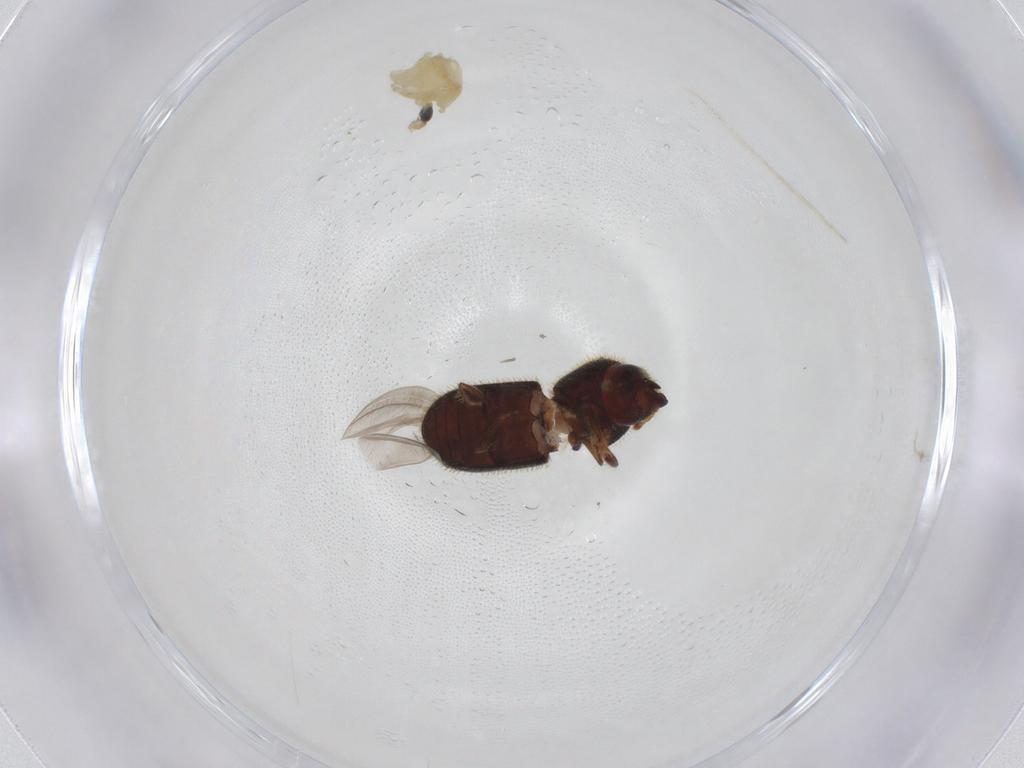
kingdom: Animalia
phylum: Arthropoda
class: Insecta
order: Coleoptera
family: Curculionidae
